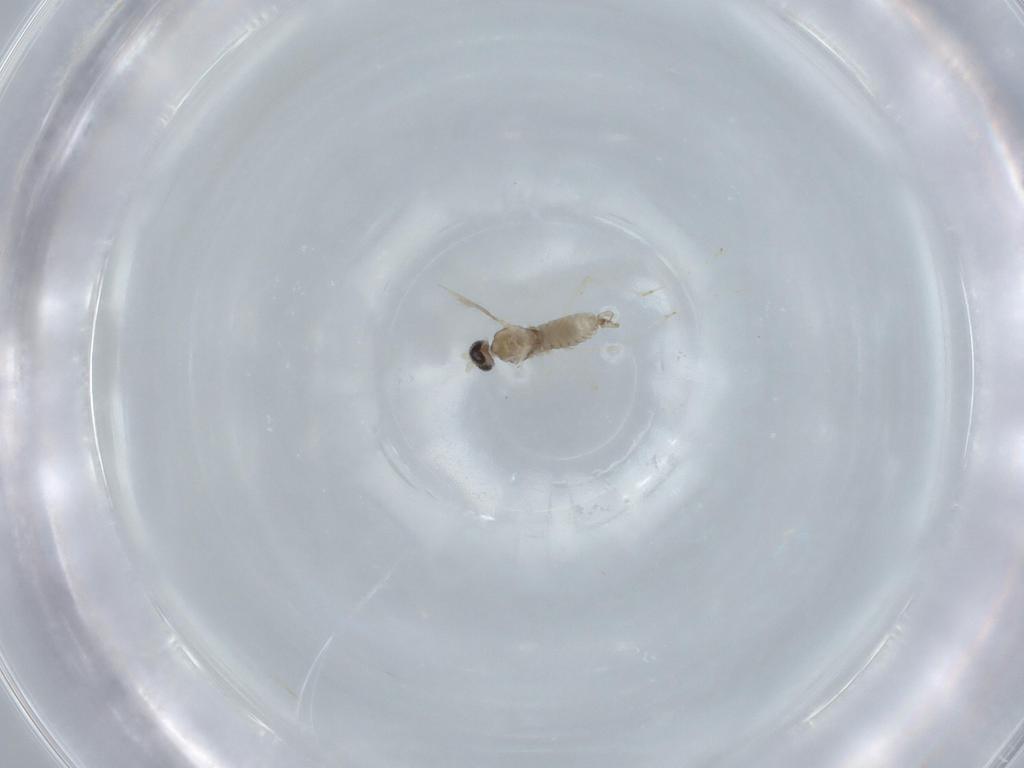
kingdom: Animalia
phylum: Arthropoda
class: Insecta
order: Diptera
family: Cecidomyiidae
